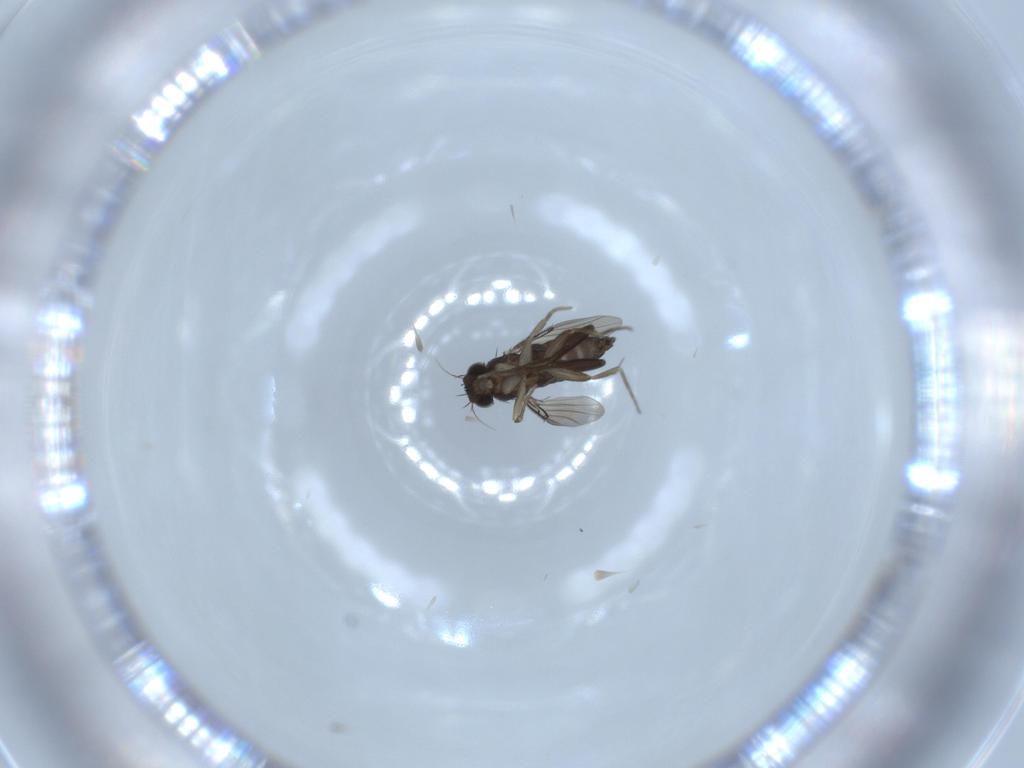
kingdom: Animalia
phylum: Arthropoda
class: Insecta
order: Diptera
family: Phoridae
